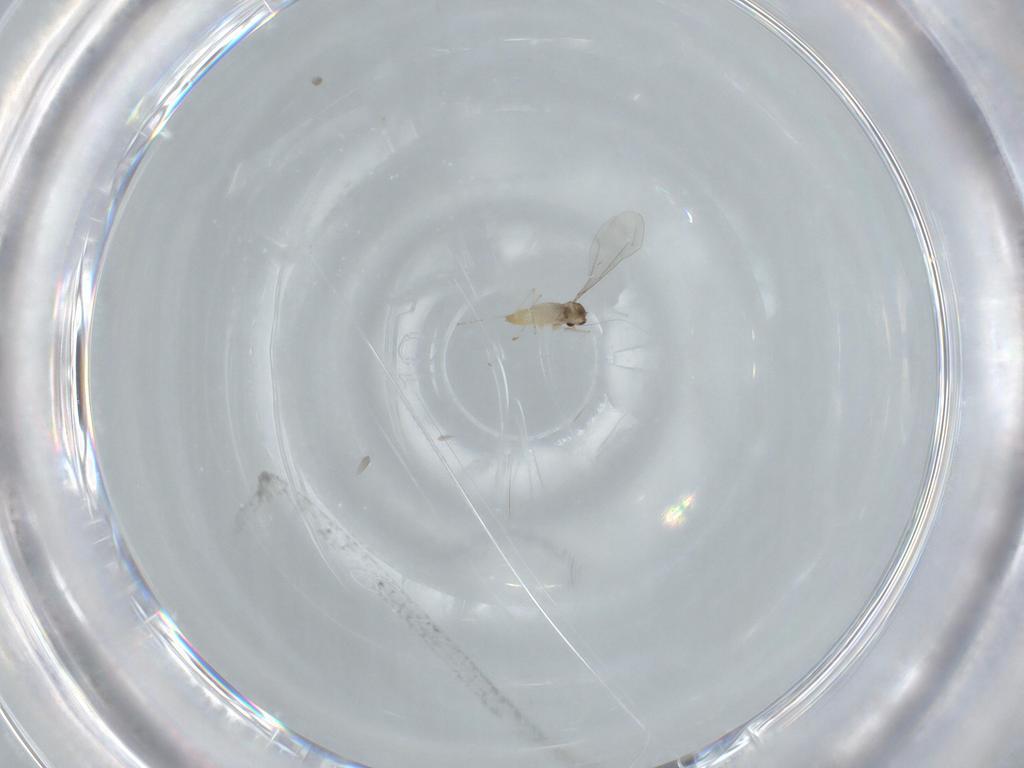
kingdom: Animalia
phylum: Arthropoda
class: Insecta
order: Diptera
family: Cecidomyiidae
